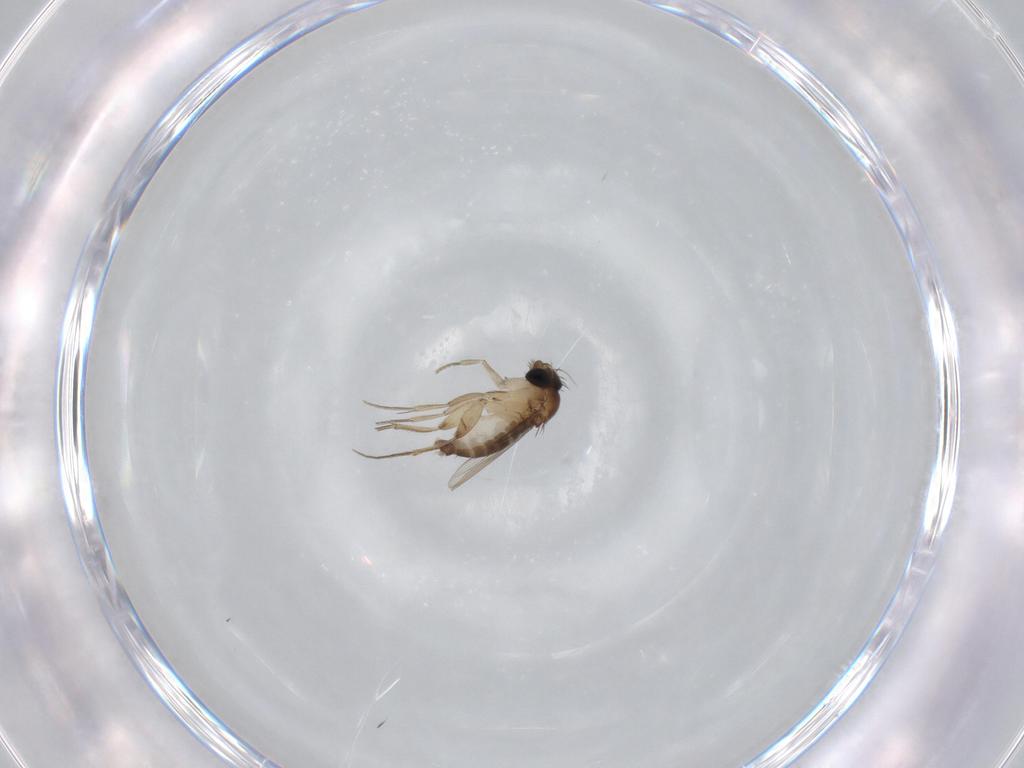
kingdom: Animalia
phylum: Arthropoda
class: Insecta
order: Diptera
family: Phoridae
